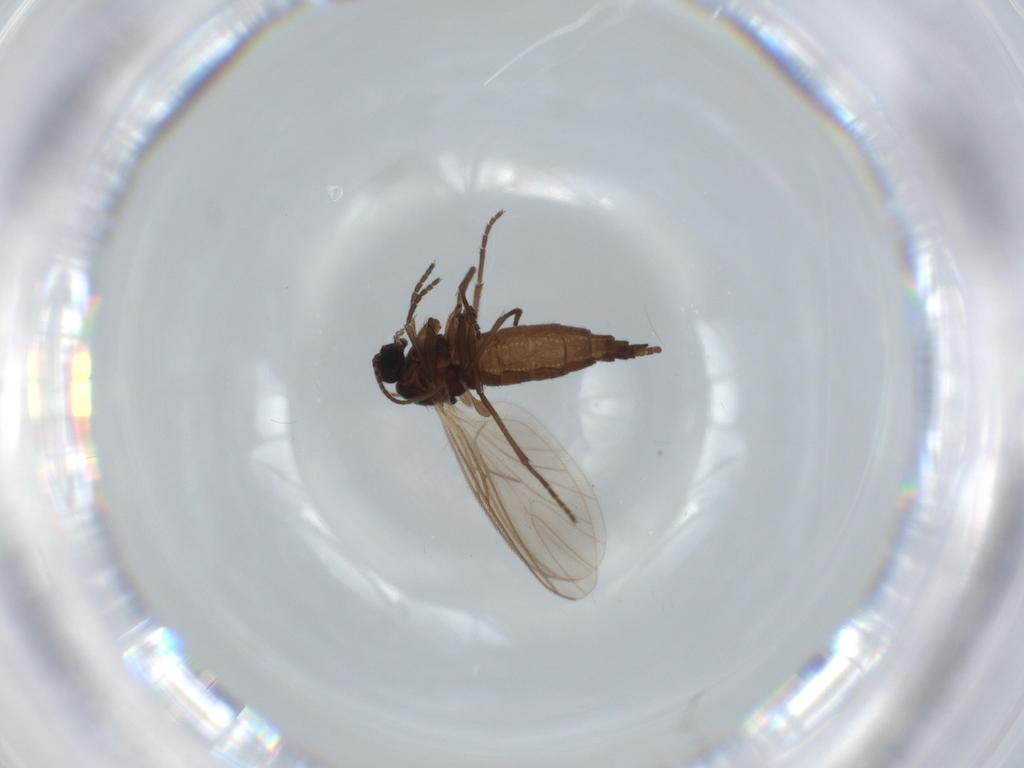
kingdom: Animalia
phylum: Arthropoda
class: Insecta
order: Diptera
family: Sciaridae
